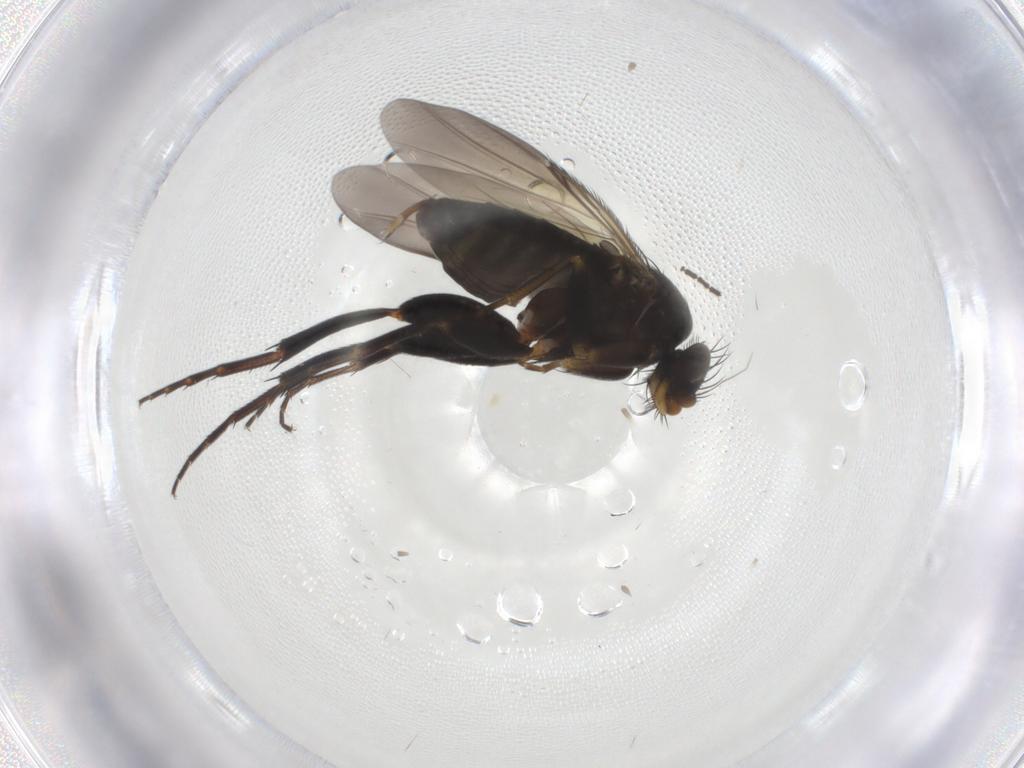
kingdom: Animalia
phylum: Arthropoda
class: Insecta
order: Diptera
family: Phoridae
